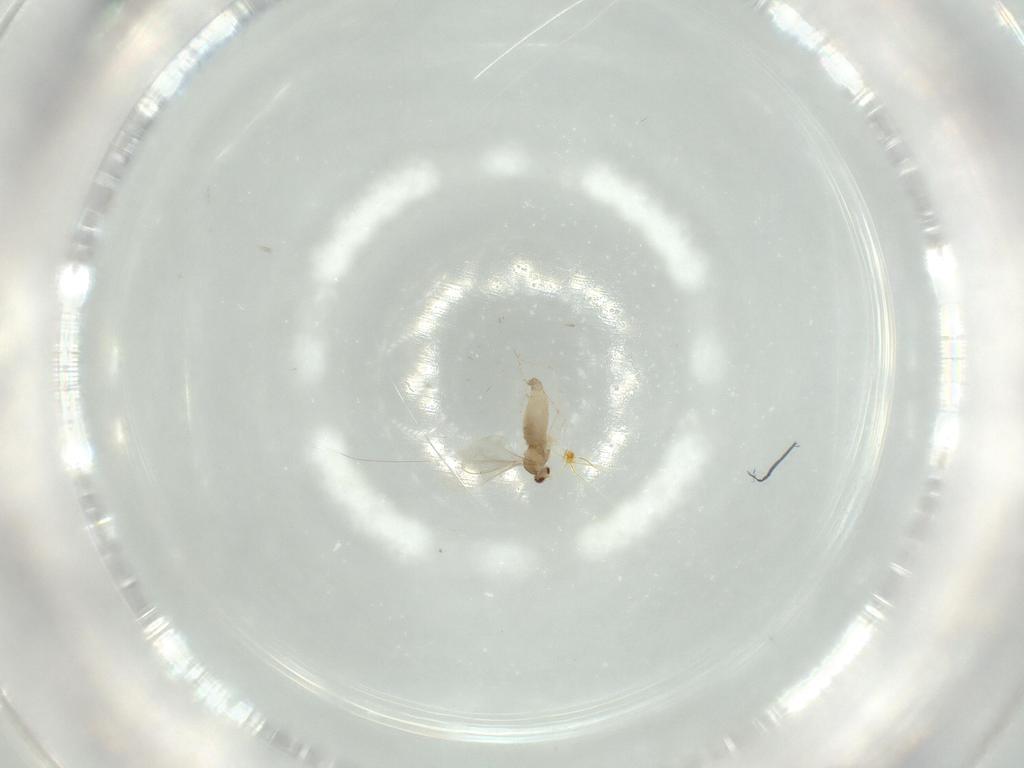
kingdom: Animalia
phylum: Arthropoda
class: Insecta
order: Diptera
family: Cecidomyiidae
